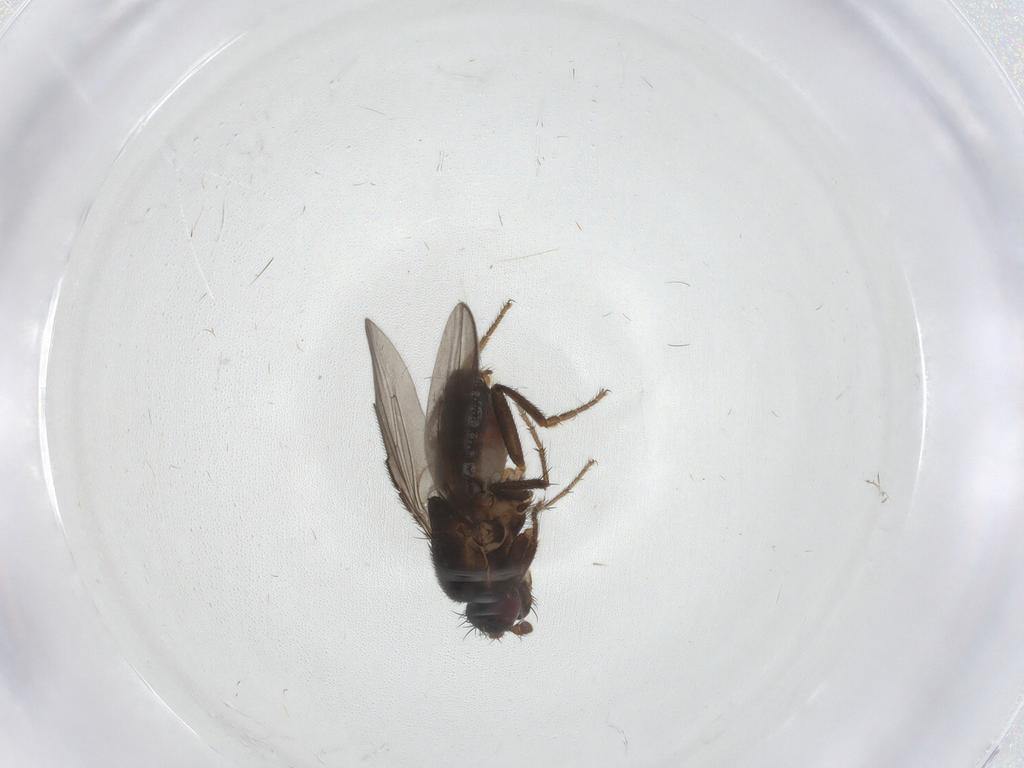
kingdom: Animalia
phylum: Arthropoda
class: Insecta
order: Diptera
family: Drosophilidae
